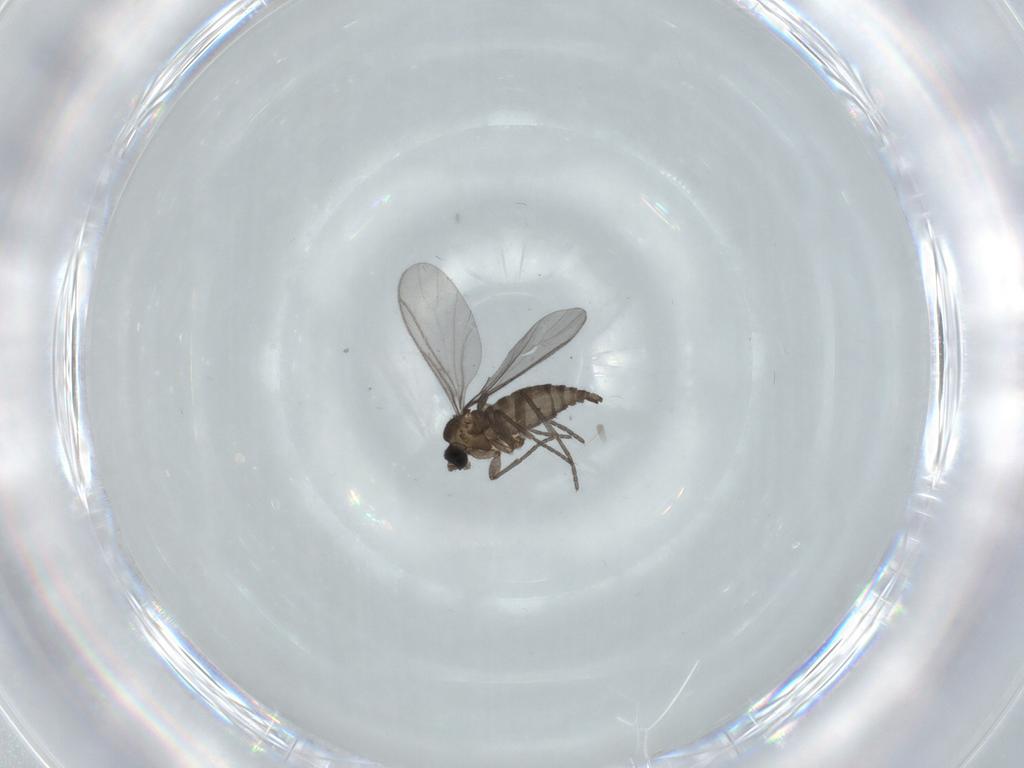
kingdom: Animalia
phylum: Arthropoda
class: Insecta
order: Diptera
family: Sciaridae
